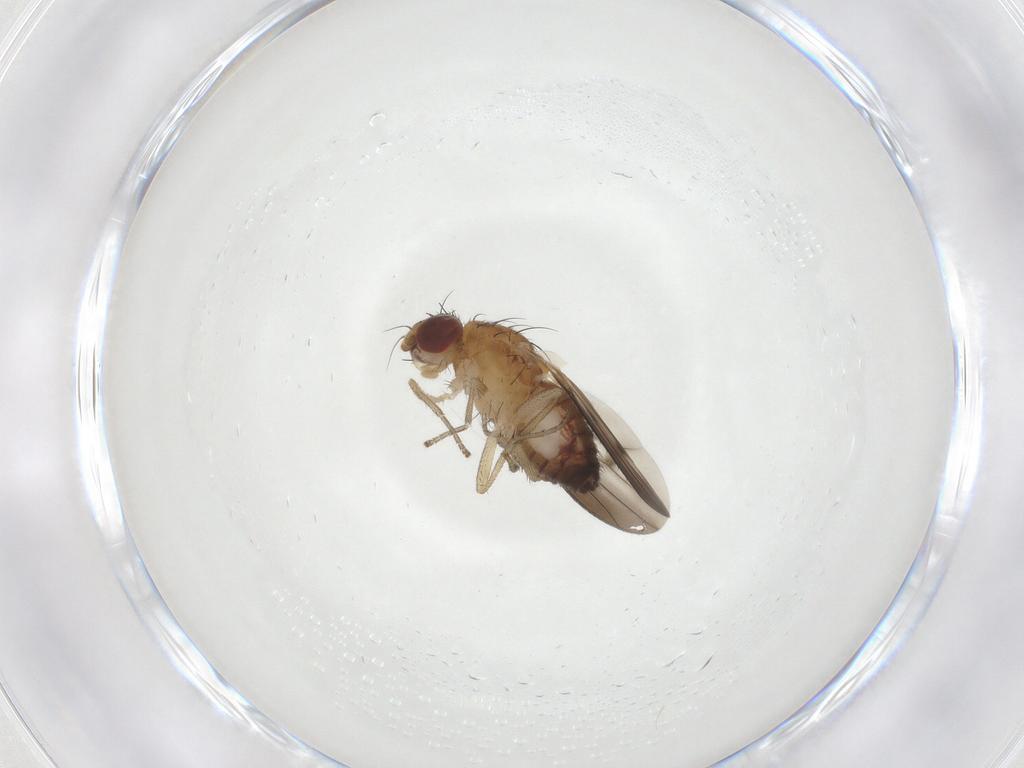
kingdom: Animalia
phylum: Arthropoda
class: Insecta
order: Diptera
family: Heleomyzidae
